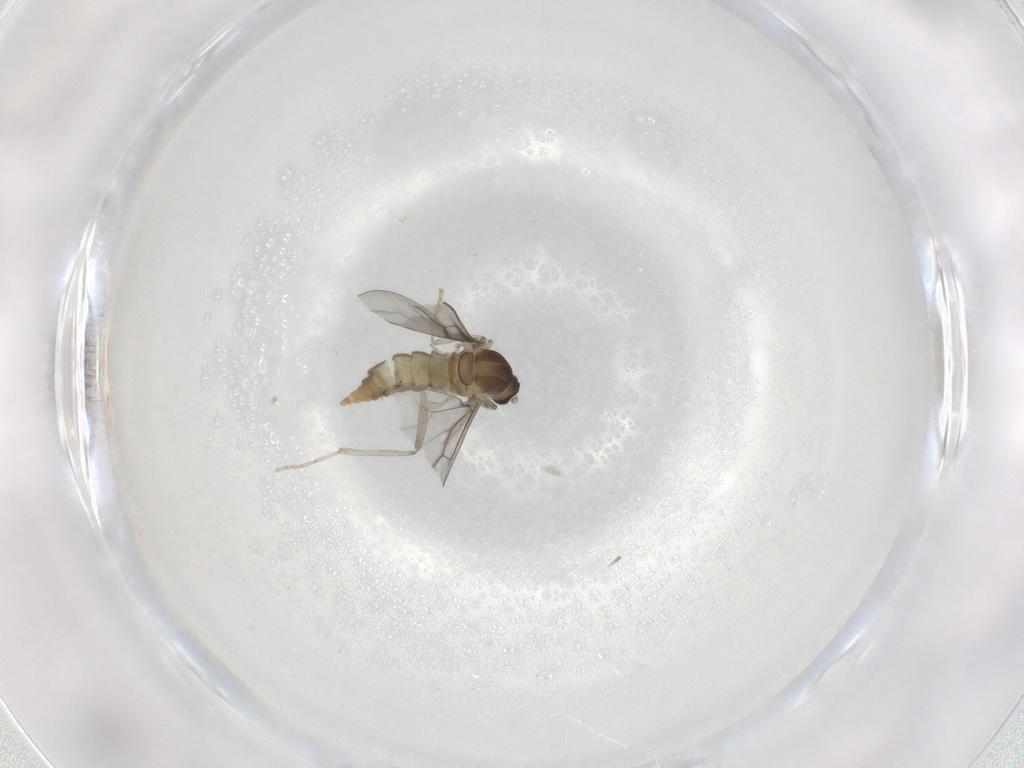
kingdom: Animalia
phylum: Arthropoda
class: Insecta
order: Diptera
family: Cecidomyiidae
